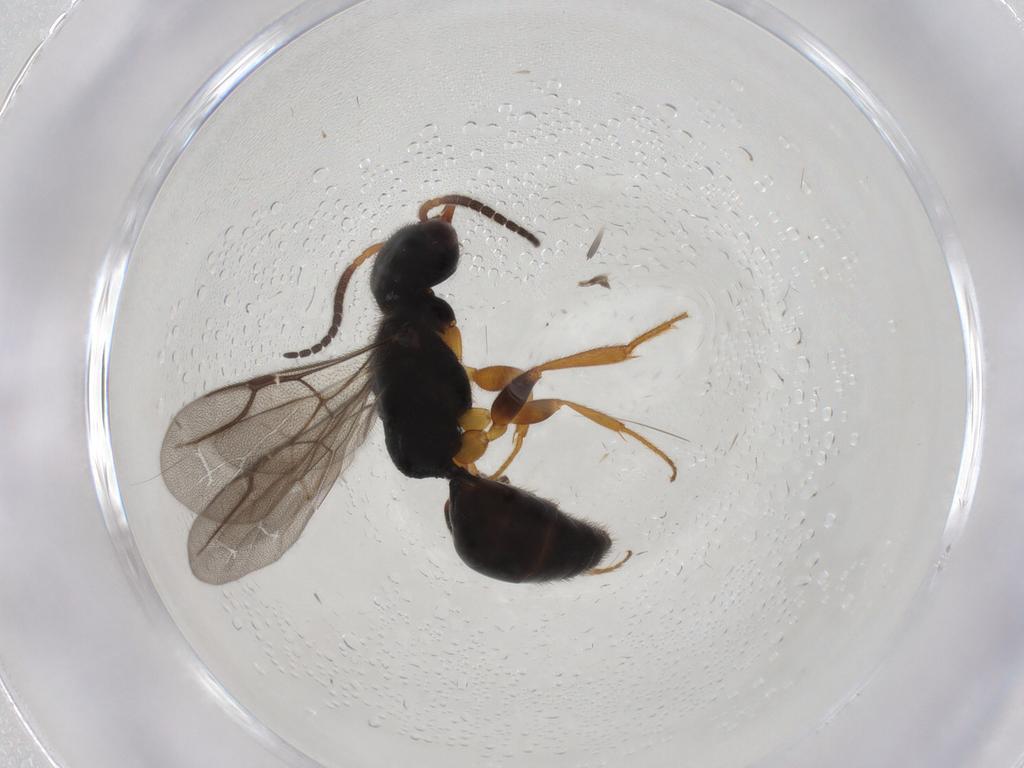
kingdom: Animalia
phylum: Arthropoda
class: Insecta
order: Hymenoptera
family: Bethylidae
